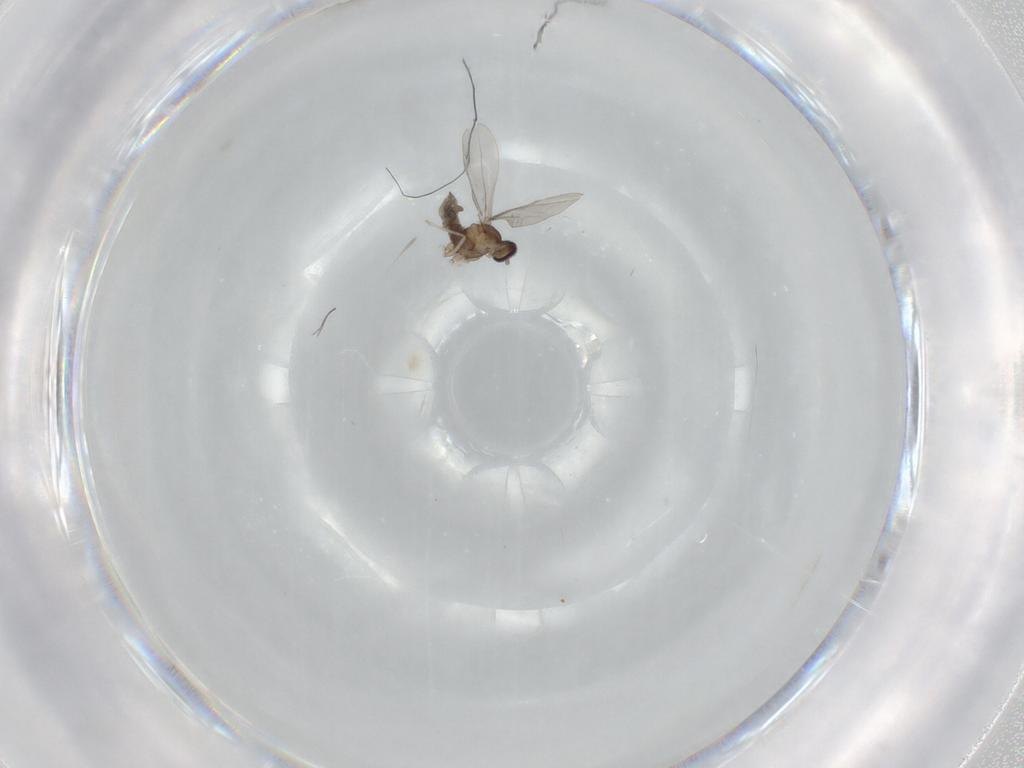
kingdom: Animalia
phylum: Arthropoda
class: Insecta
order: Diptera
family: Cecidomyiidae
